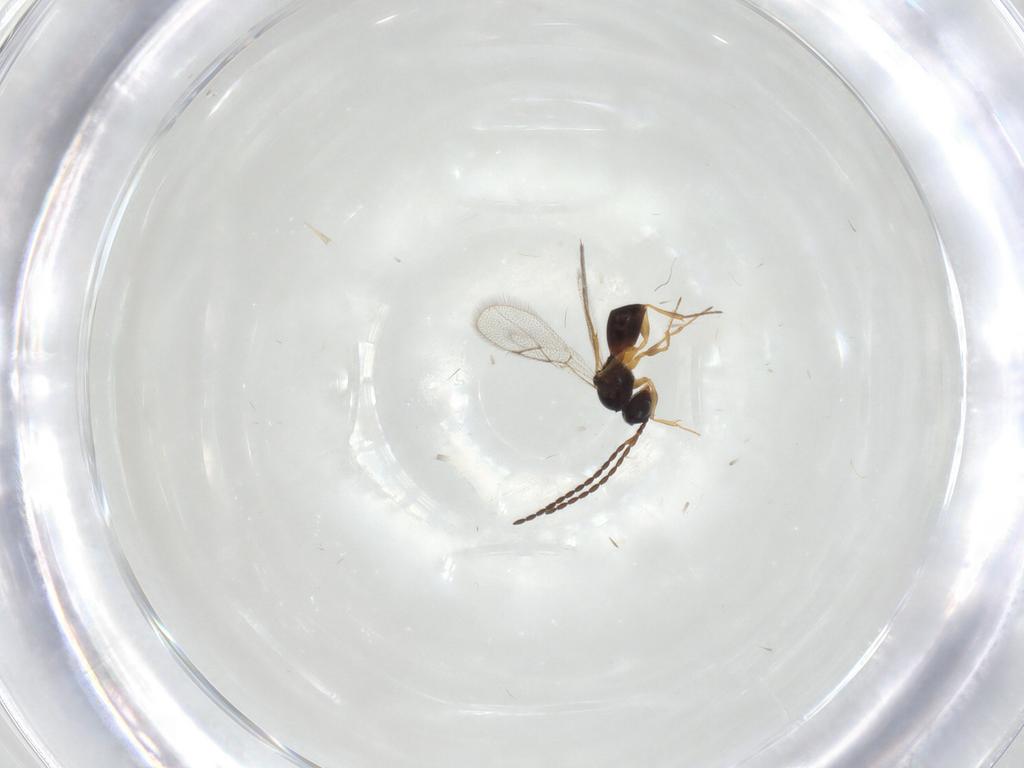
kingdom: Animalia
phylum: Arthropoda
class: Insecta
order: Hymenoptera
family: Figitidae
